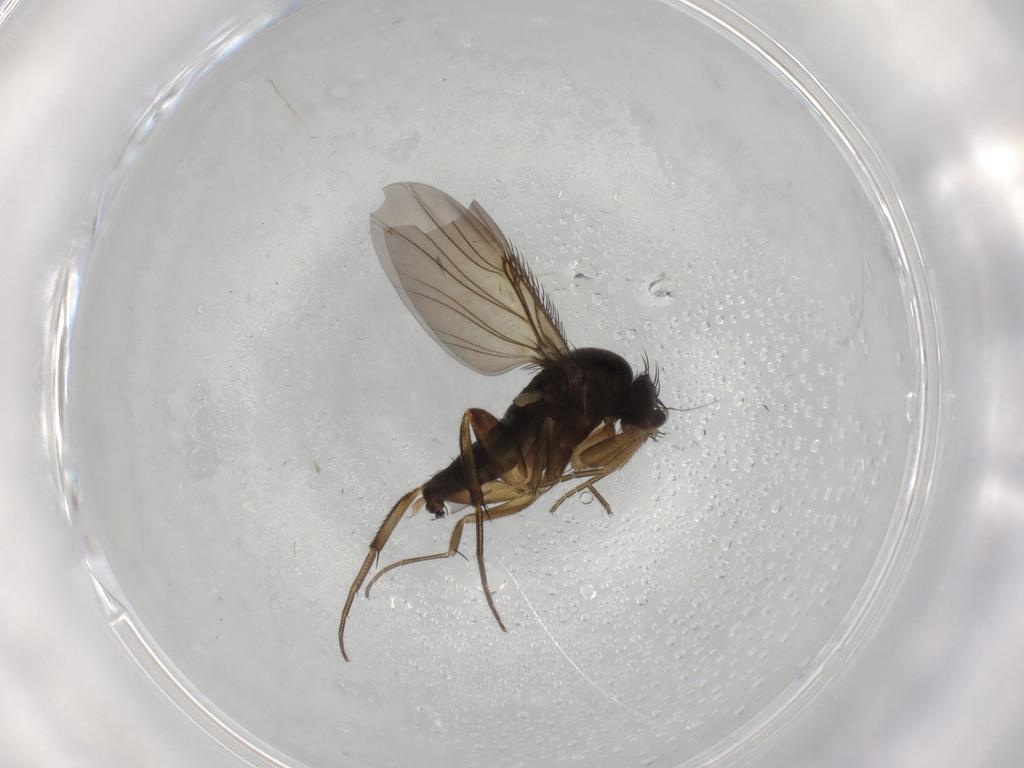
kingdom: Animalia
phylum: Arthropoda
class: Insecta
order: Diptera
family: Phoridae
